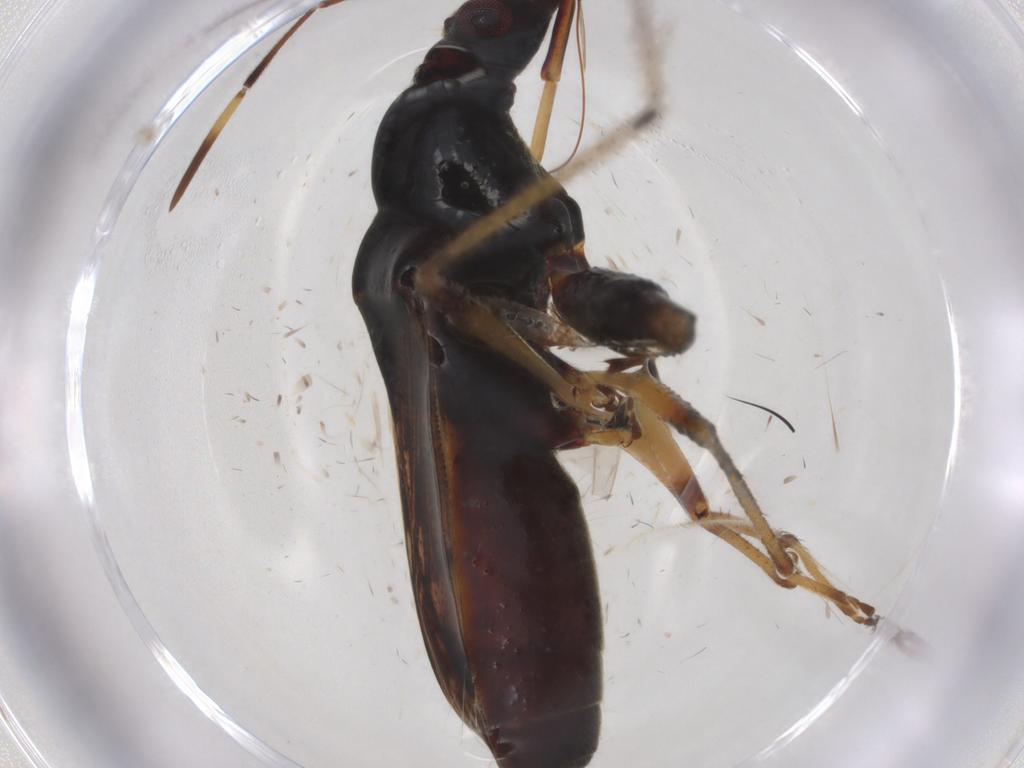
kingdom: Animalia
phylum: Arthropoda
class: Insecta
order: Hemiptera
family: Rhyparochromidae
